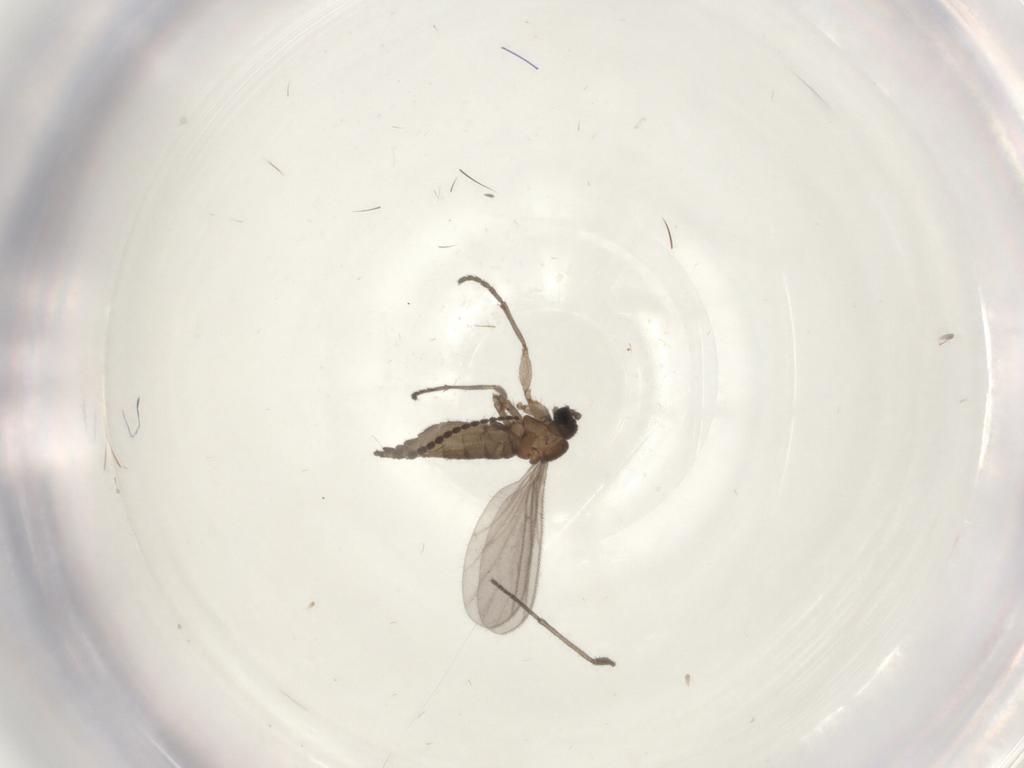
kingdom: Animalia
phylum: Arthropoda
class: Insecta
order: Diptera
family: Sciaridae
